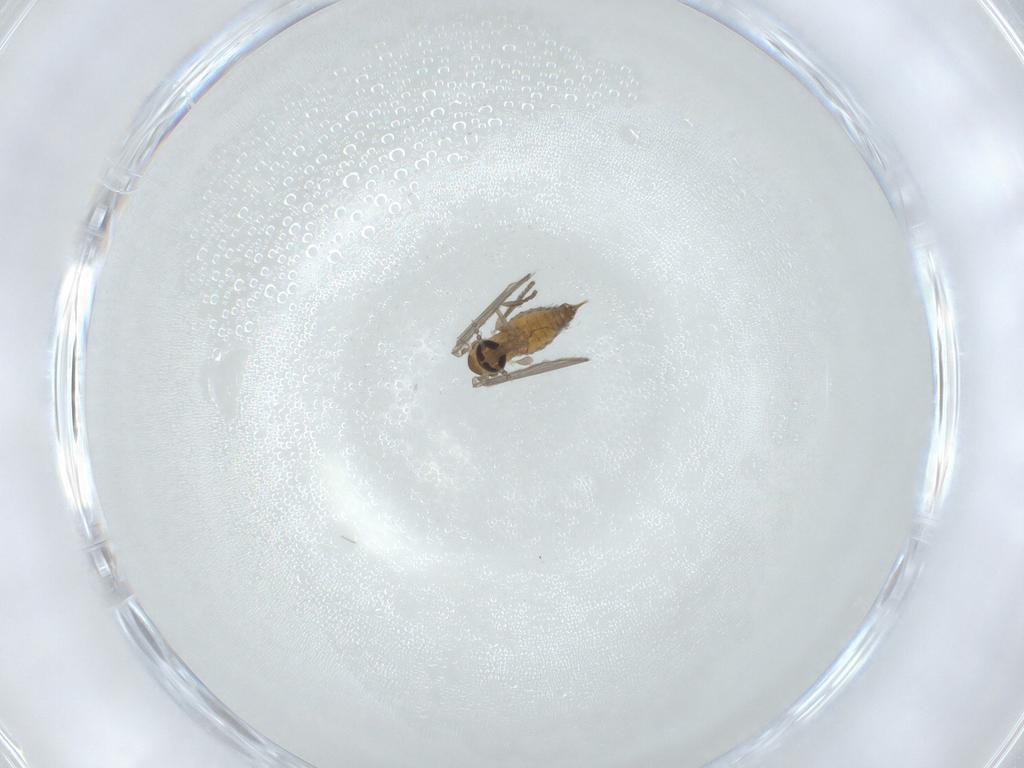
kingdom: Animalia
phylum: Arthropoda
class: Insecta
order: Diptera
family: Psychodidae
